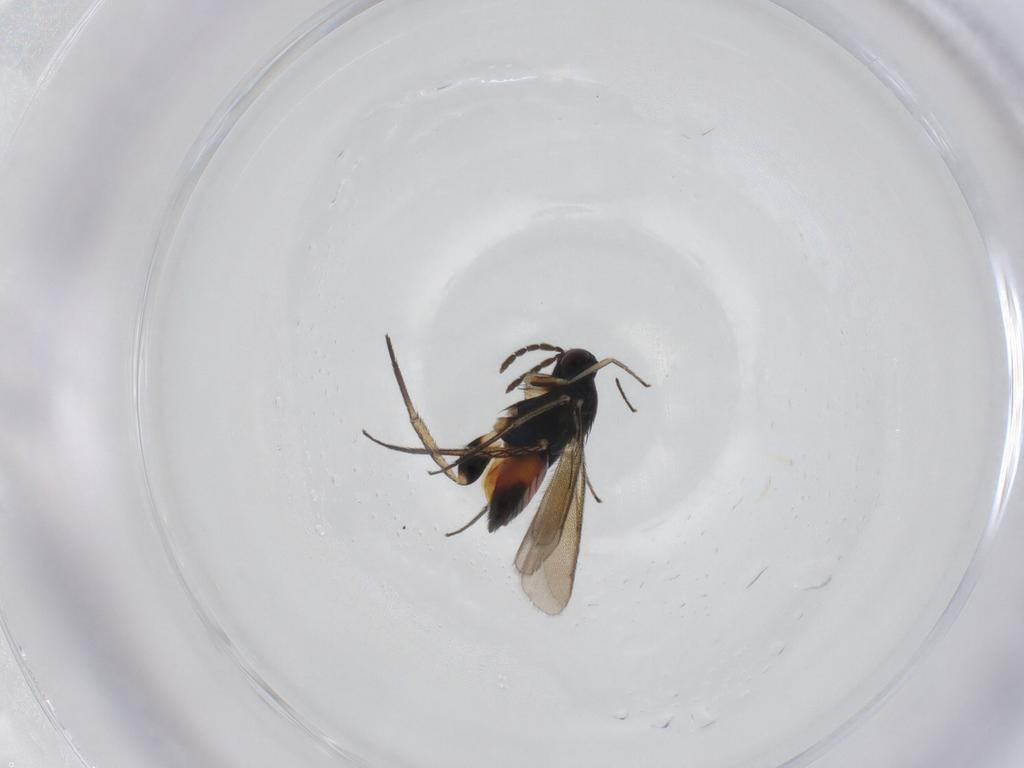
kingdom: Animalia
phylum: Arthropoda
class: Insecta
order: Hymenoptera
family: Eulophidae
